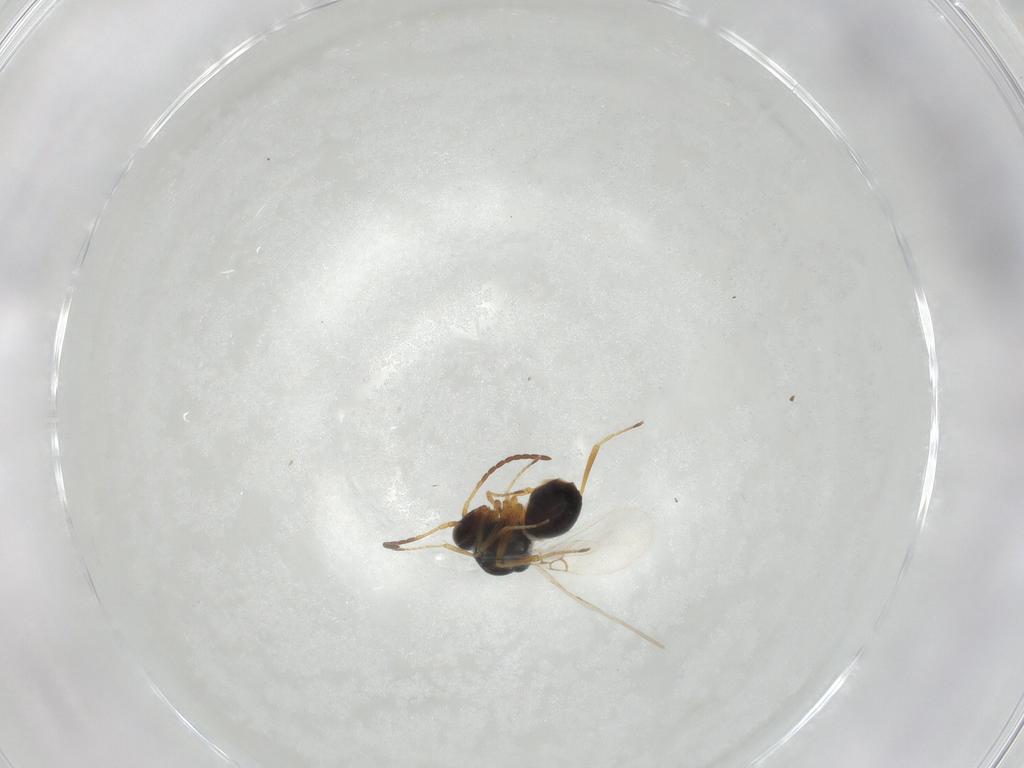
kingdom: Animalia
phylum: Arthropoda
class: Insecta
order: Hymenoptera
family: Figitidae
